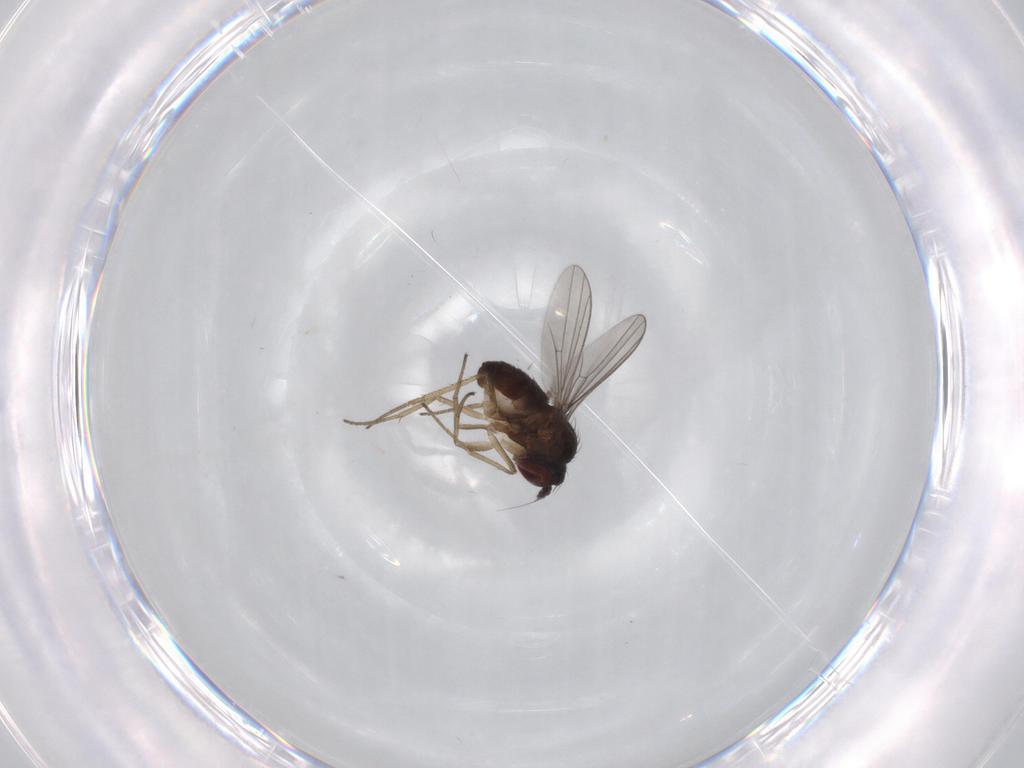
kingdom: Animalia
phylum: Arthropoda
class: Insecta
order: Diptera
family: Dolichopodidae
